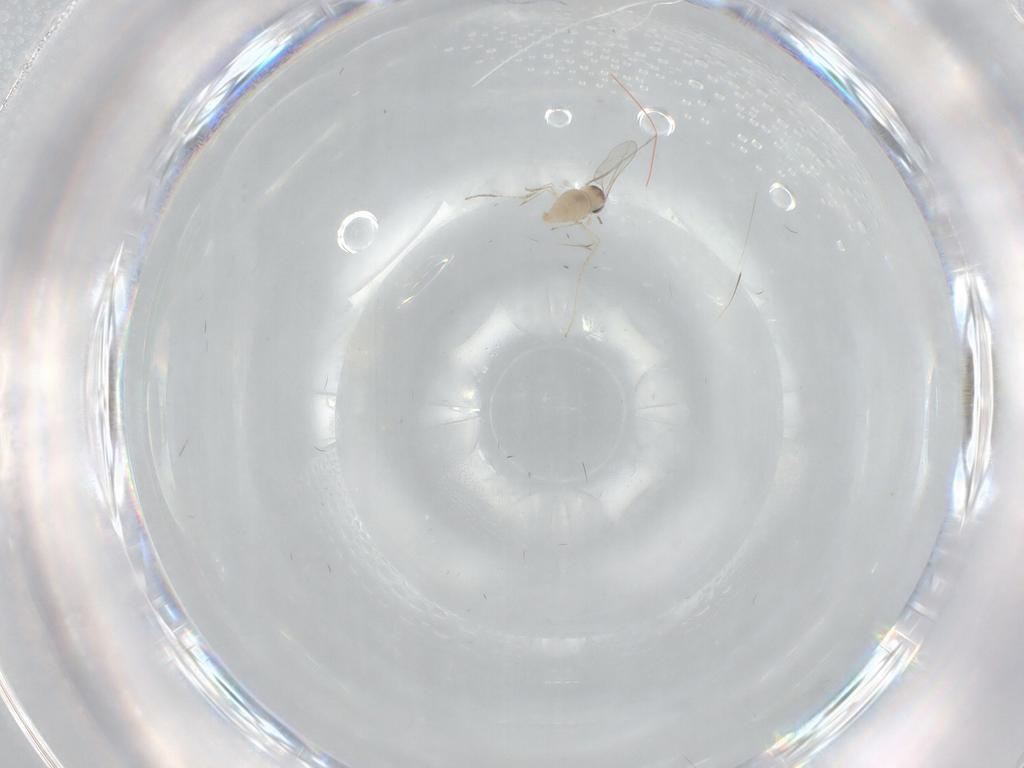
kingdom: Animalia
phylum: Arthropoda
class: Insecta
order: Diptera
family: Cecidomyiidae
